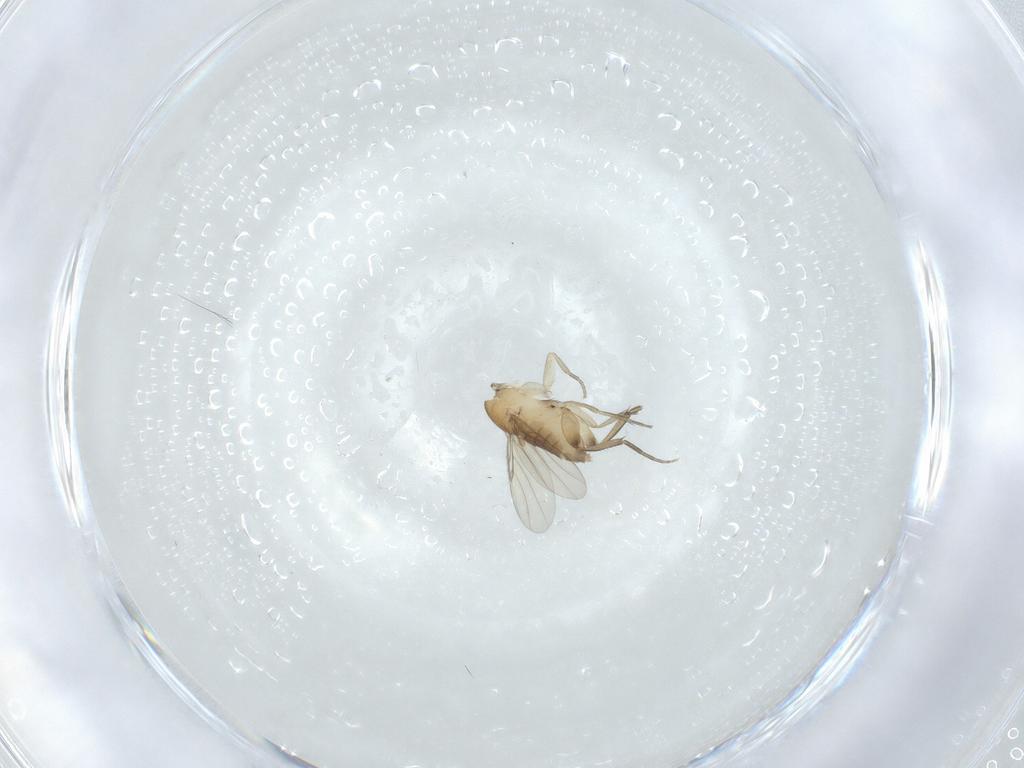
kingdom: Animalia
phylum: Arthropoda
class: Insecta
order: Diptera
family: Phoridae
